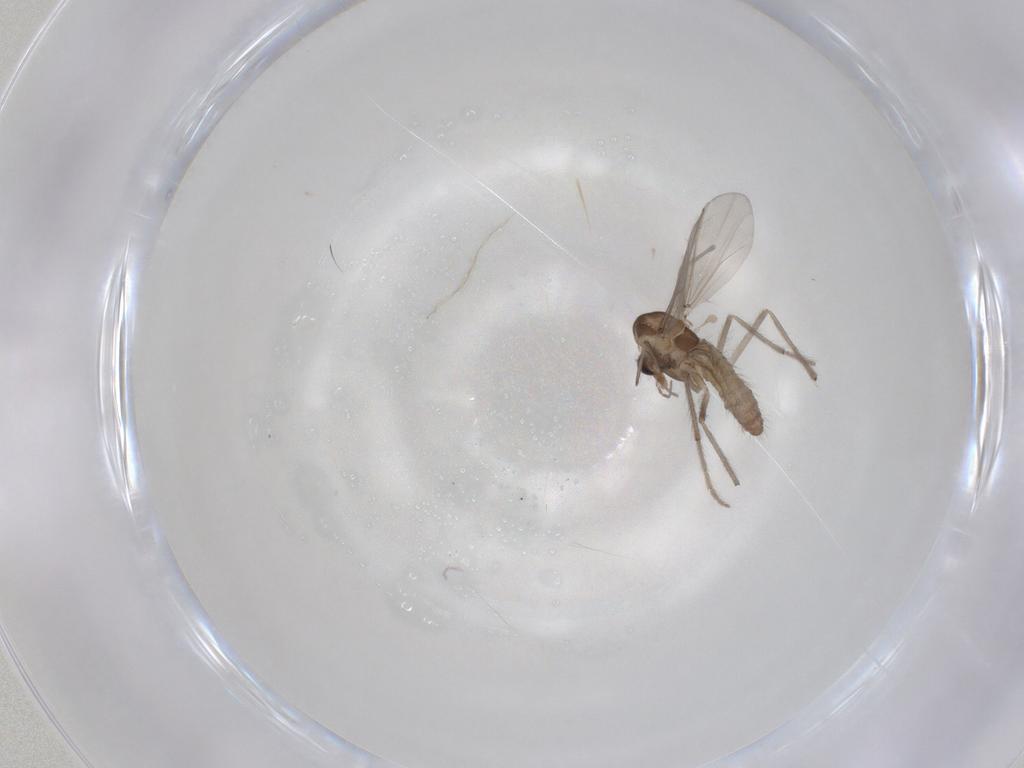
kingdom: Animalia
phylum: Arthropoda
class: Insecta
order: Diptera
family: Chironomidae
